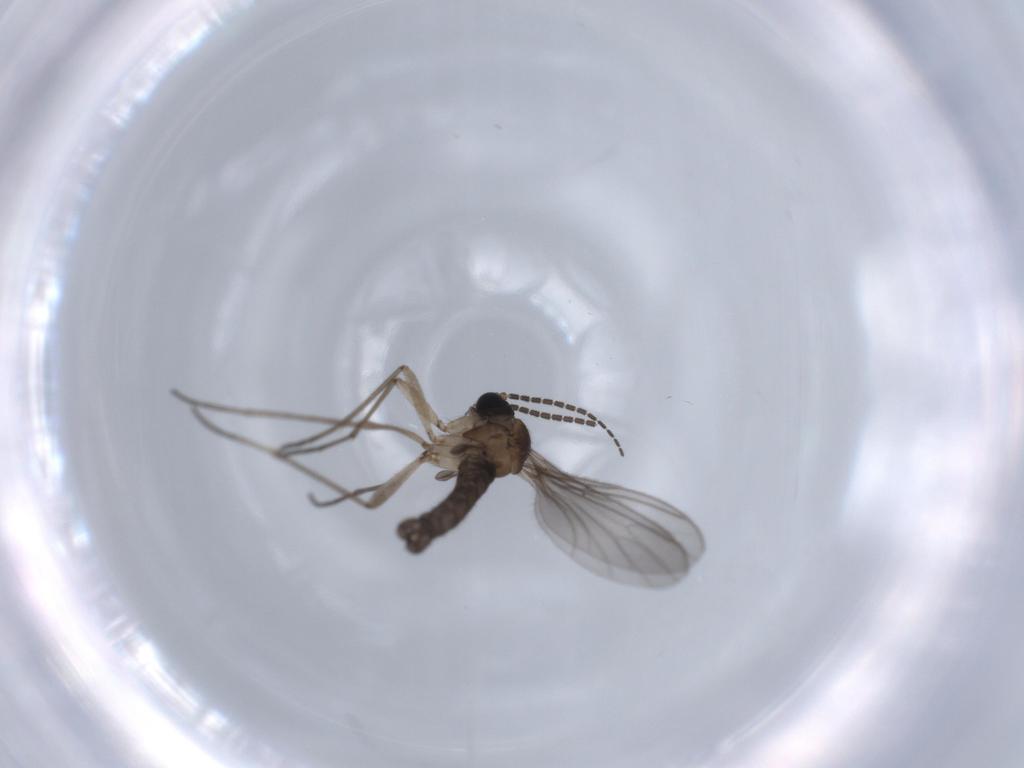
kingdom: Animalia
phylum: Arthropoda
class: Insecta
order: Diptera
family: Sciaridae
